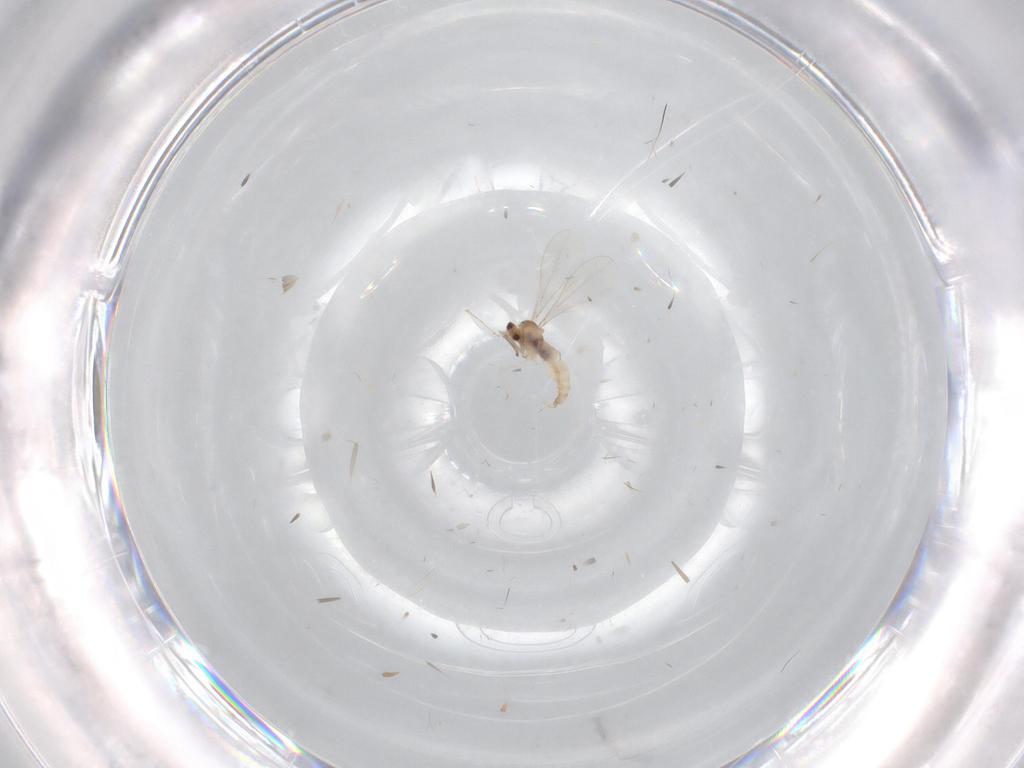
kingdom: Animalia
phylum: Arthropoda
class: Insecta
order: Diptera
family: Cecidomyiidae
